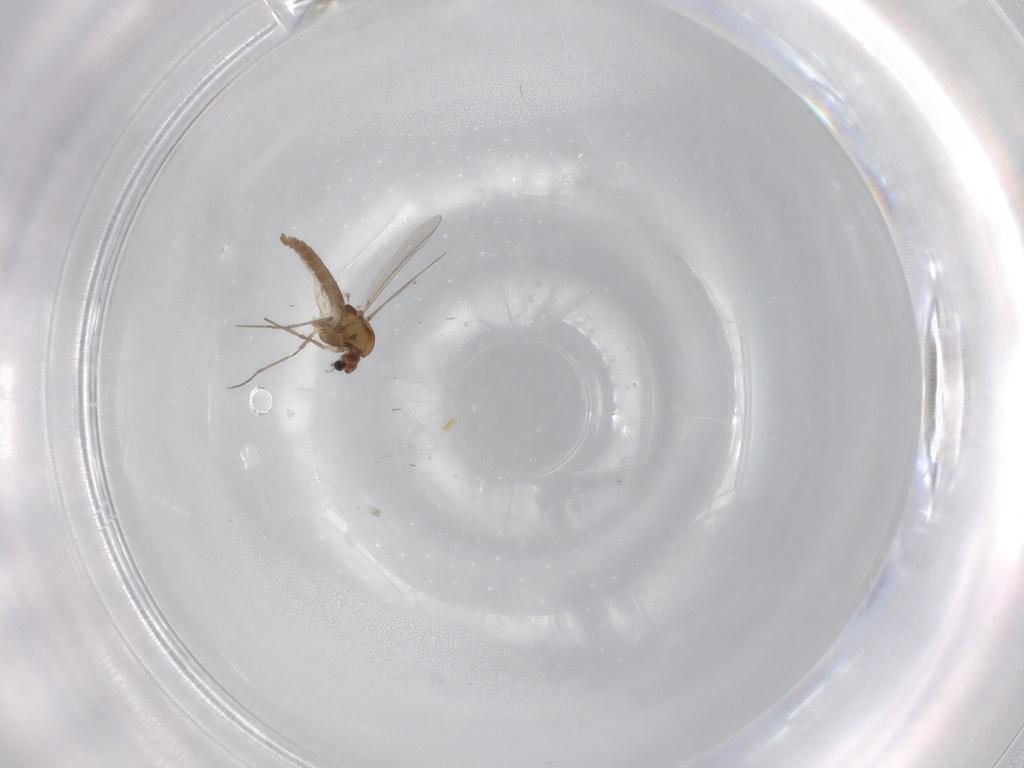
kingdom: Animalia
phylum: Arthropoda
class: Insecta
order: Diptera
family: Chironomidae
